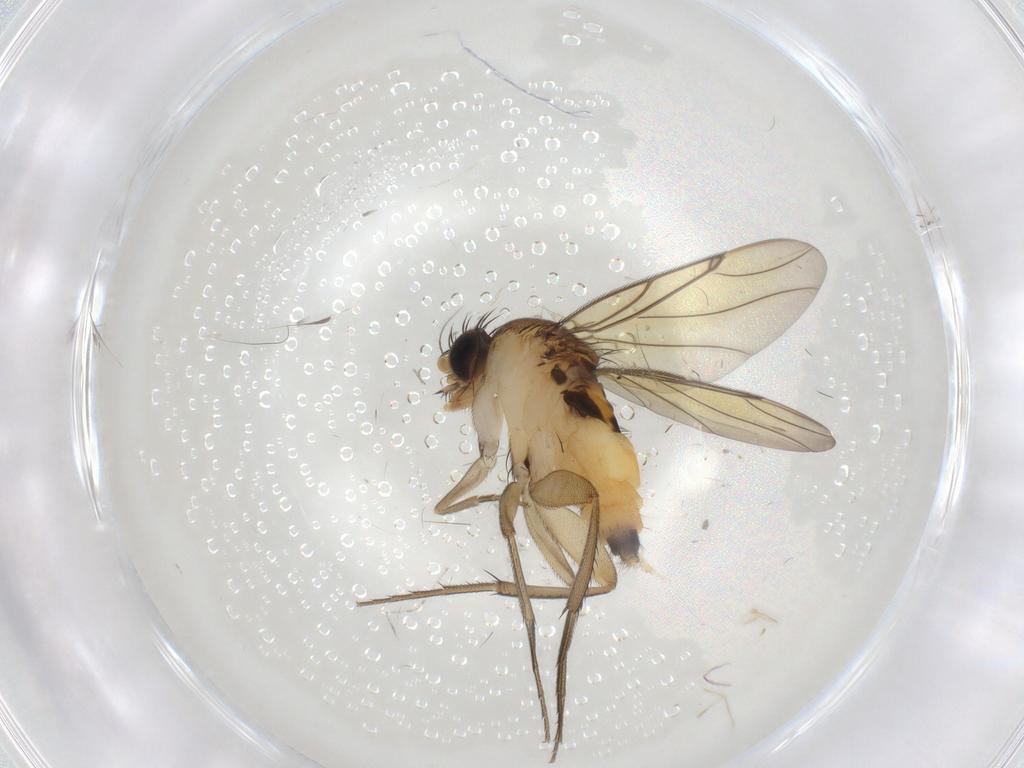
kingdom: Animalia
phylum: Arthropoda
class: Insecta
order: Diptera
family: Chironomidae
